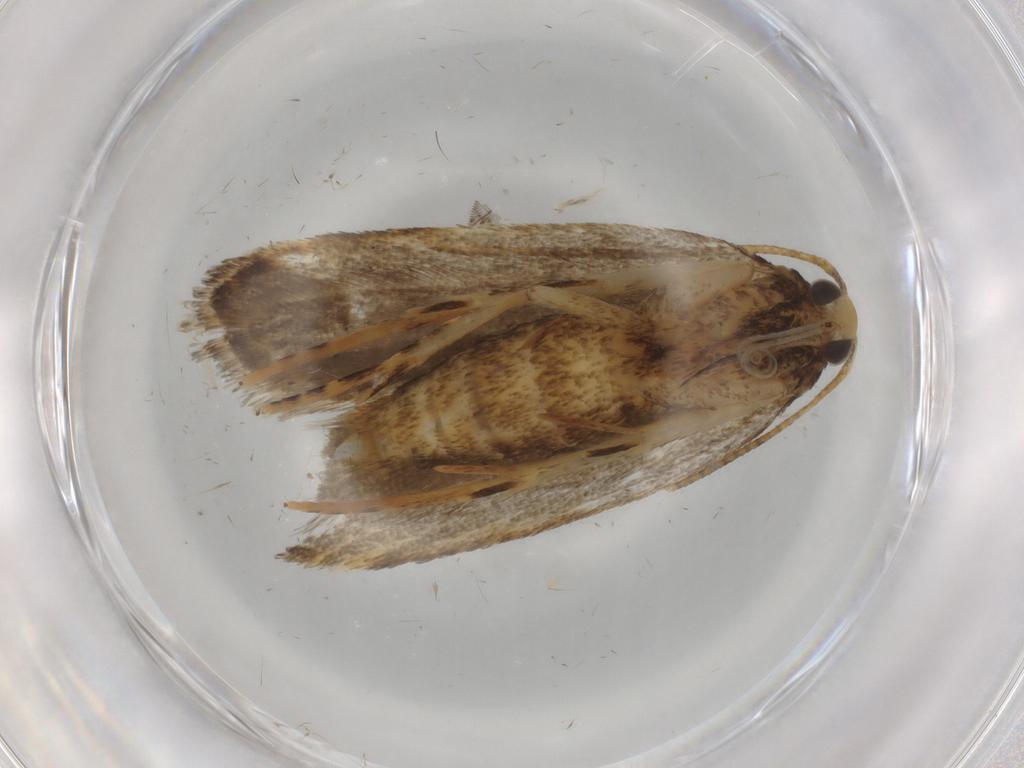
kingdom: Animalia
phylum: Arthropoda
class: Insecta
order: Lepidoptera
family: Autostichidae
